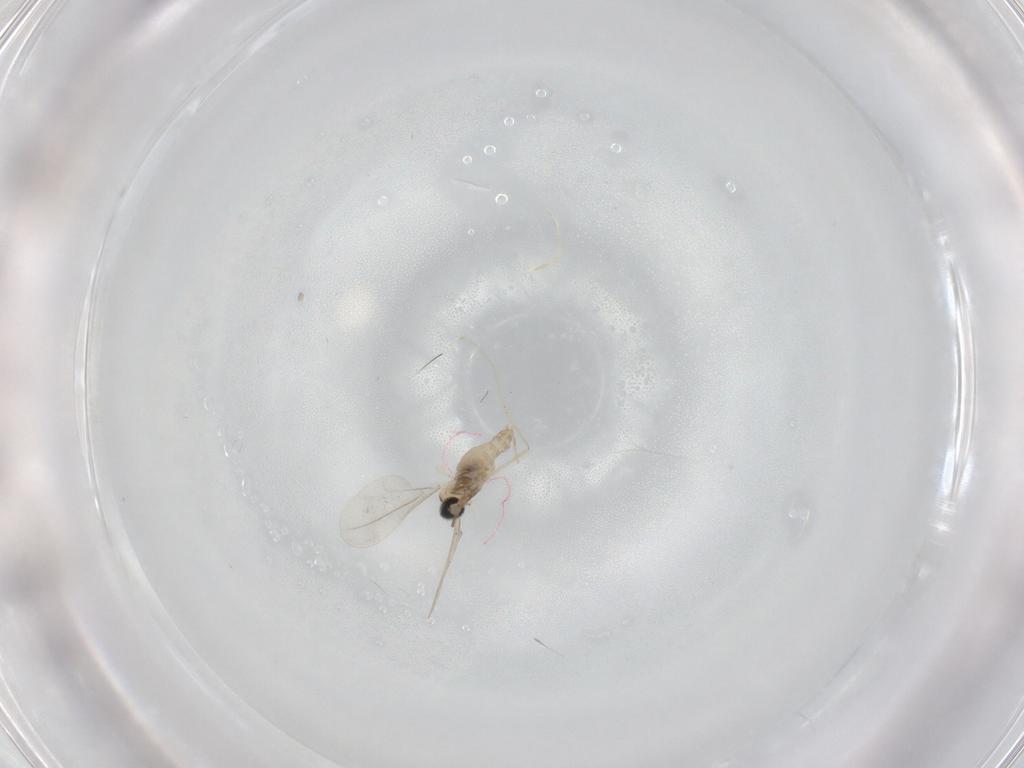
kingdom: Animalia
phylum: Arthropoda
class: Insecta
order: Diptera
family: Cecidomyiidae
